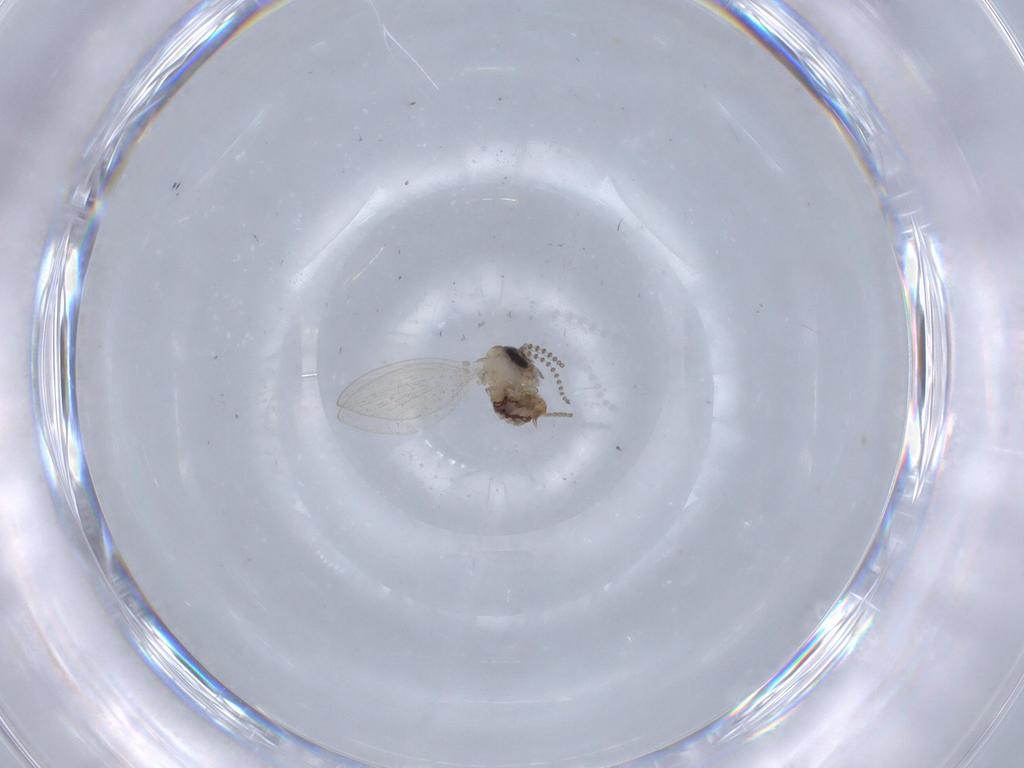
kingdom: Animalia
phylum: Arthropoda
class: Insecta
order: Diptera
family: Psychodidae
